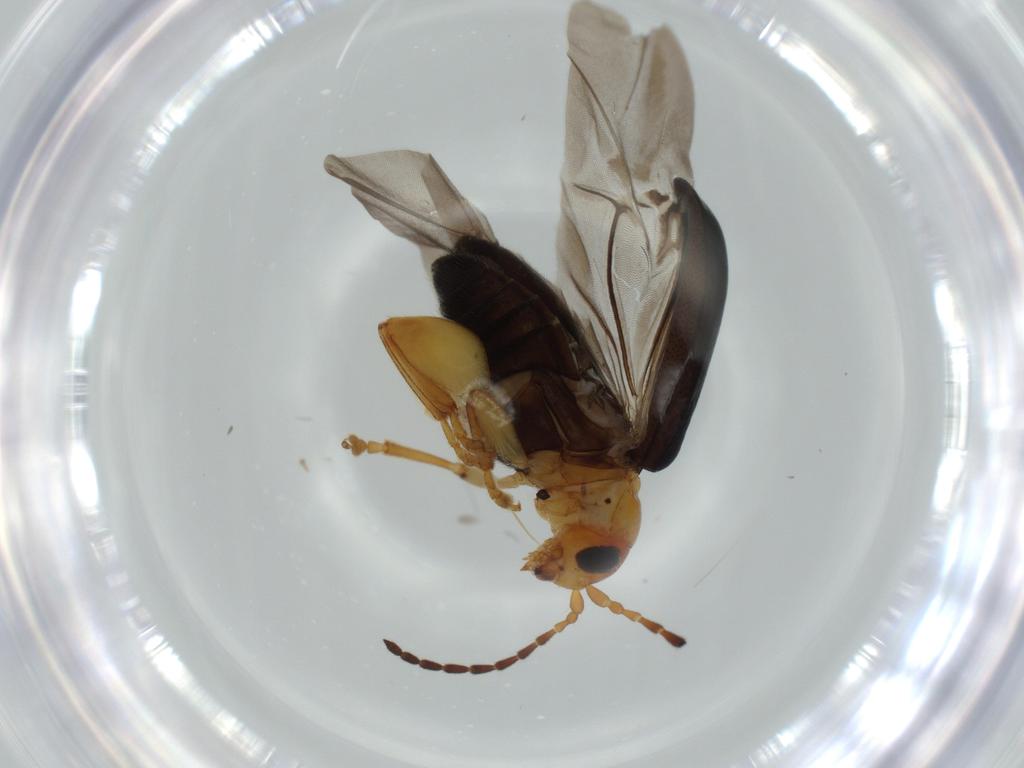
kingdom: Animalia
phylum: Arthropoda
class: Insecta
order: Coleoptera
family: Chrysomelidae
